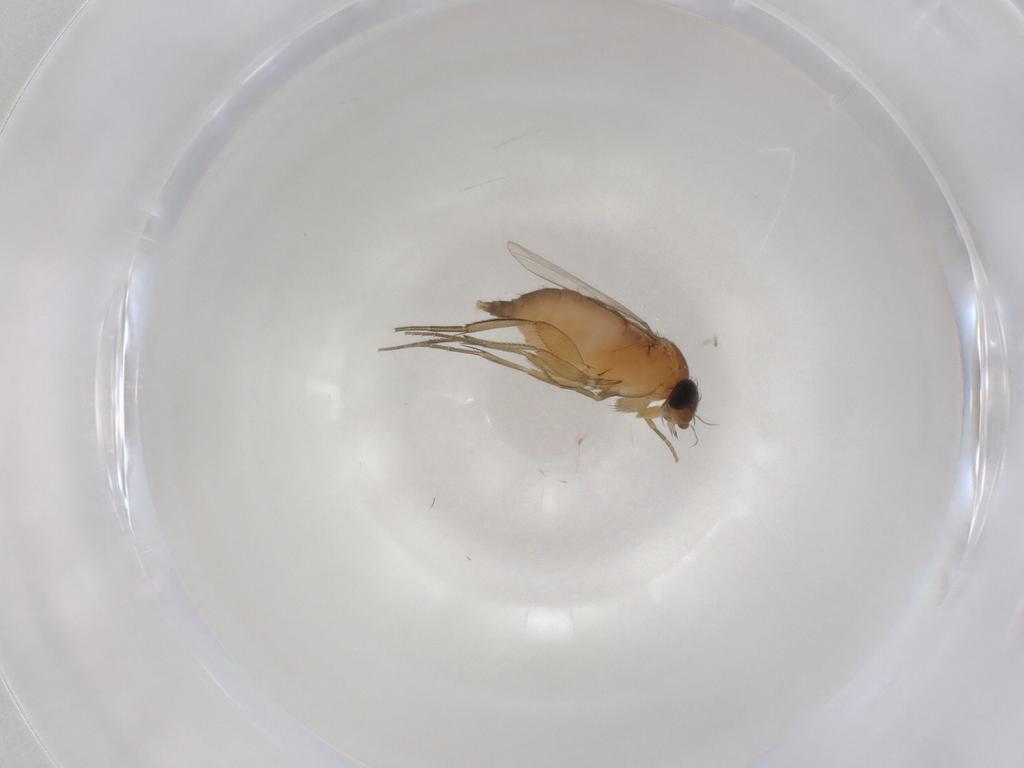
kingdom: Animalia
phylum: Arthropoda
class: Insecta
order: Diptera
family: Phoridae
